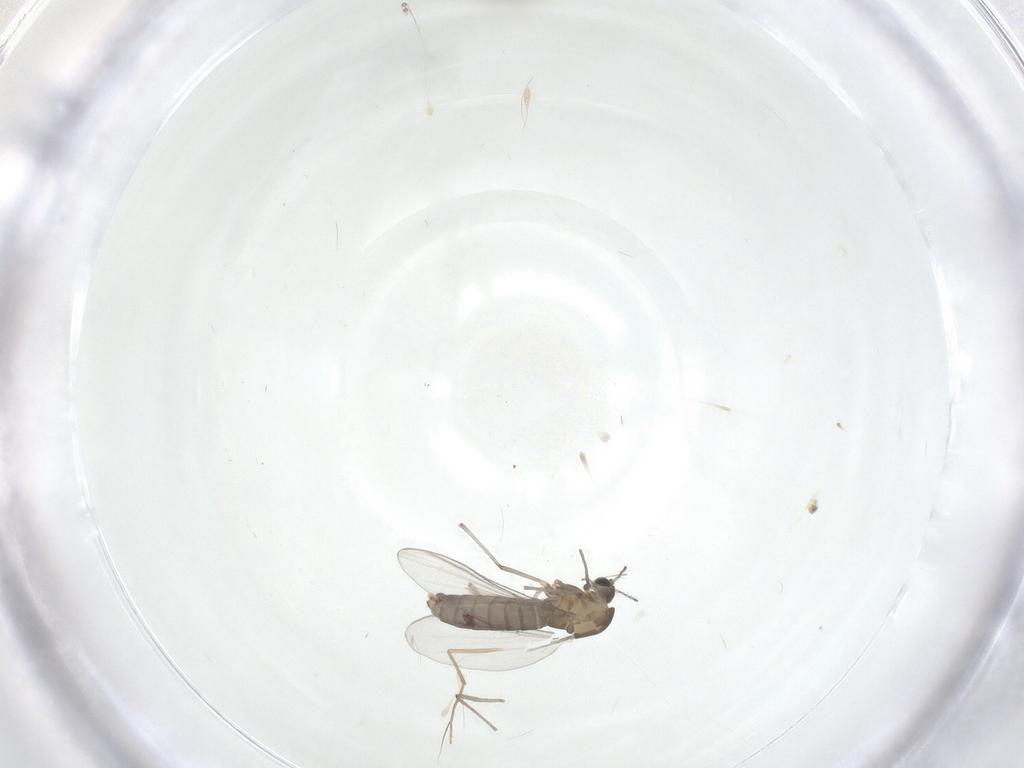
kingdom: Animalia
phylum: Arthropoda
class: Insecta
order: Diptera
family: Chironomidae
